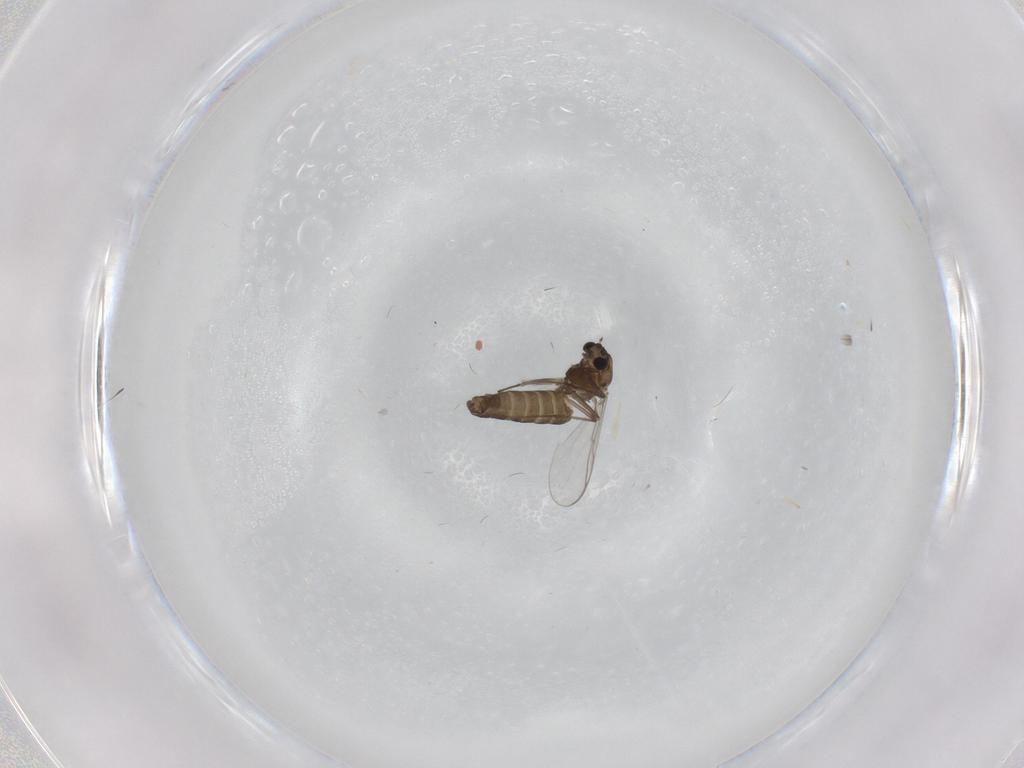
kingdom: Animalia
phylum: Arthropoda
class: Insecta
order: Diptera
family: Chironomidae
